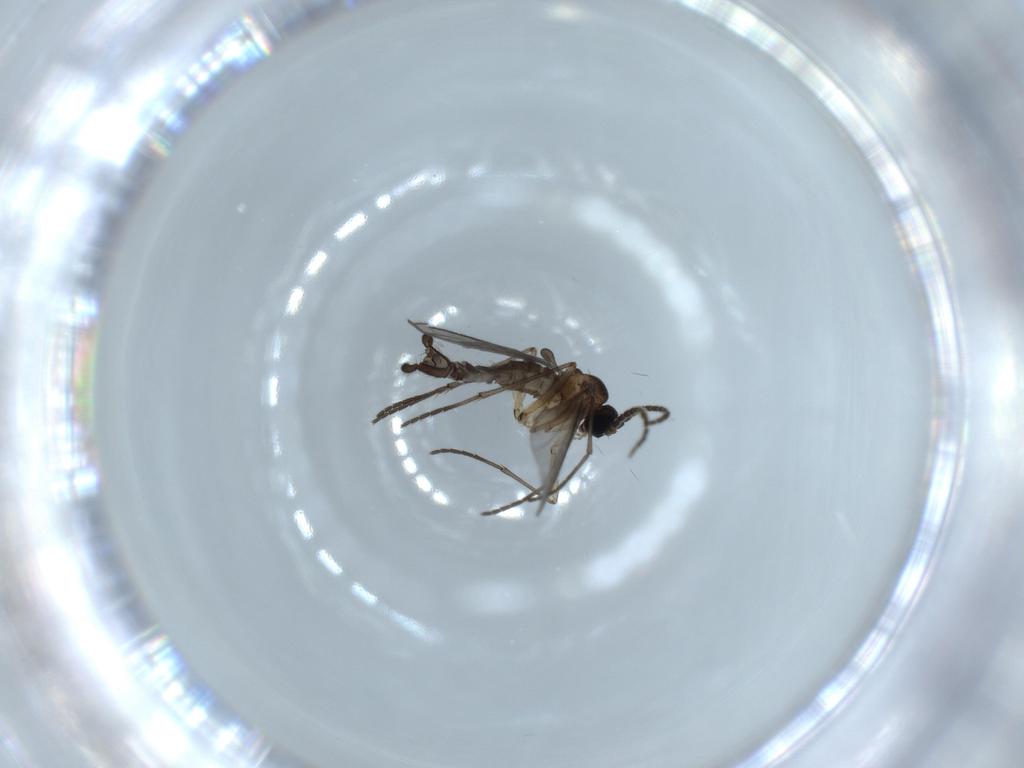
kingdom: Animalia
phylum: Arthropoda
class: Insecta
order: Diptera
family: Sciaridae
